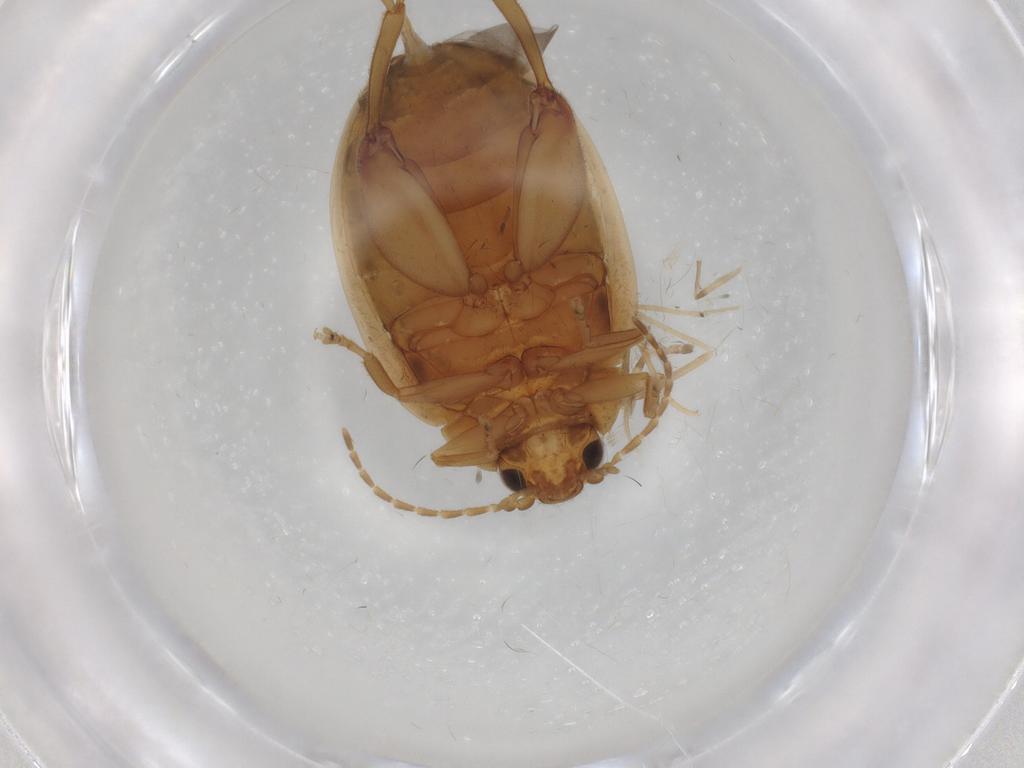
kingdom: Animalia
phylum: Arthropoda
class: Insecta
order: Coleoptera
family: Scirtidae
